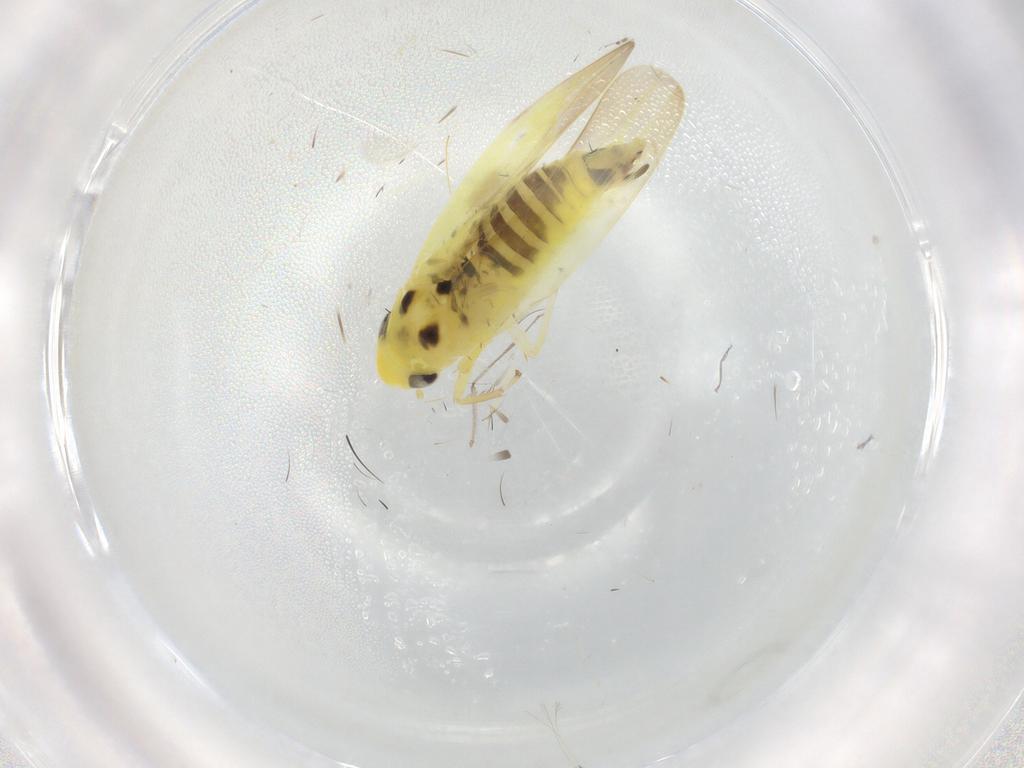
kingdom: Animalia
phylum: Arthropoda
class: Insecta
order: Hemiptera
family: Cicadellidae
